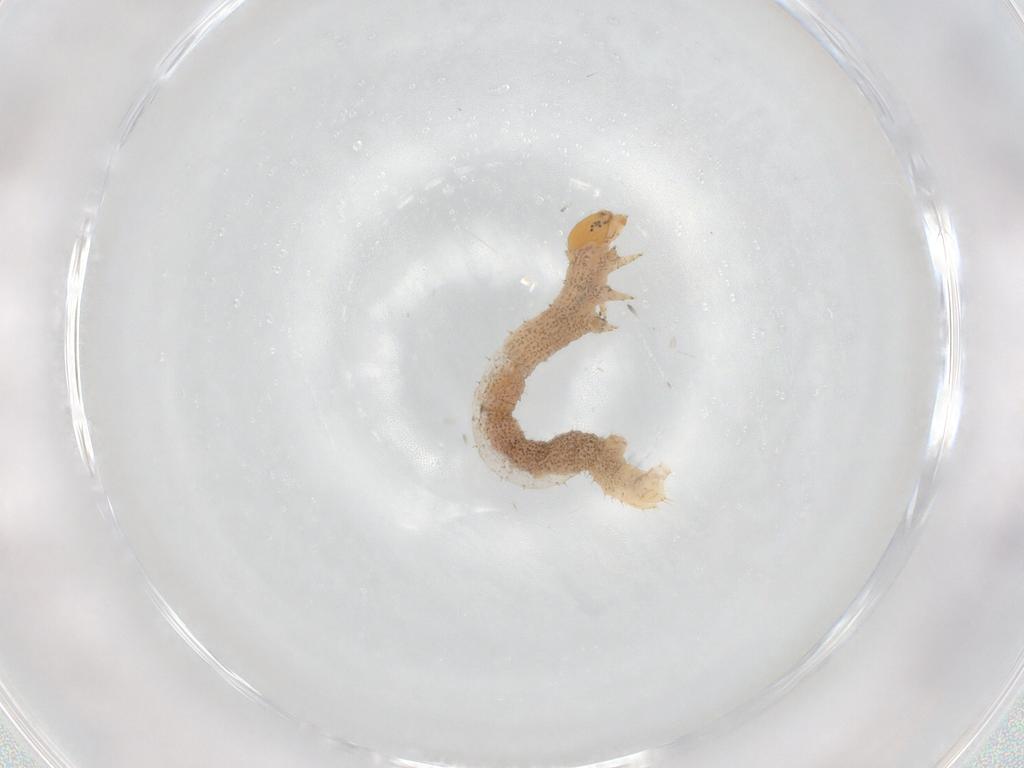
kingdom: Animalia
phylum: Arthropoda
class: Insecta
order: Lepidoptera
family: Geometridae
